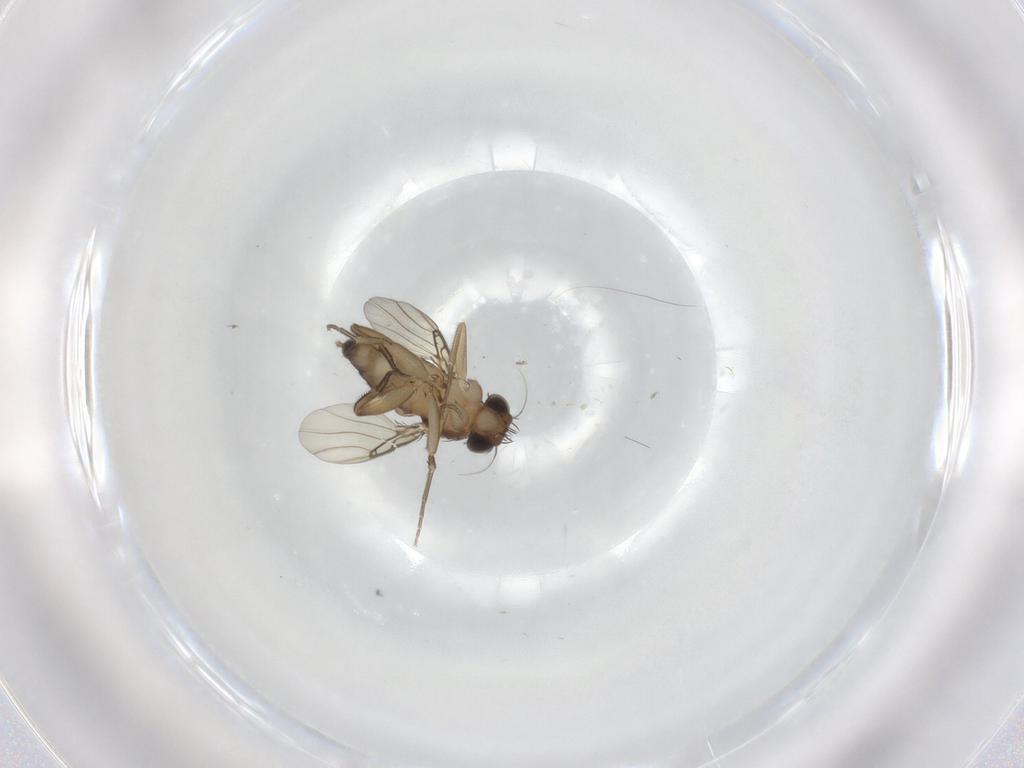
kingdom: Animalia
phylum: Arthropoda
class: Insecta
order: Diptera
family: Phoridae
